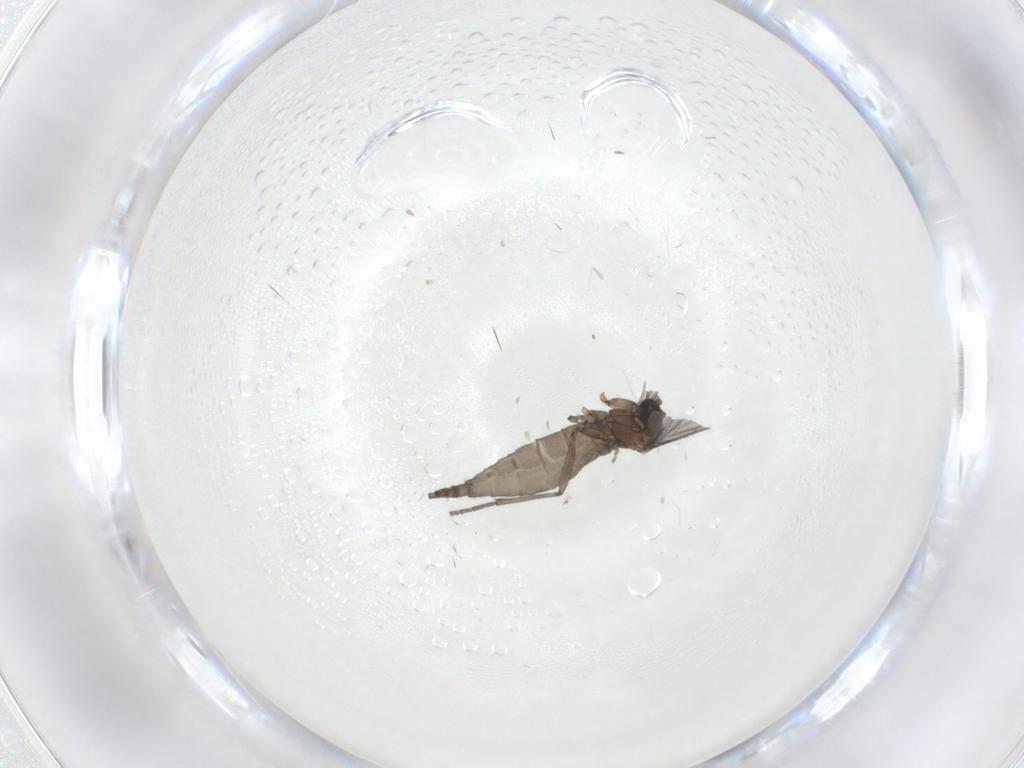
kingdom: Animalia
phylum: Arthropoda
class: Insecta
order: Diptera
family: Sciaridae
